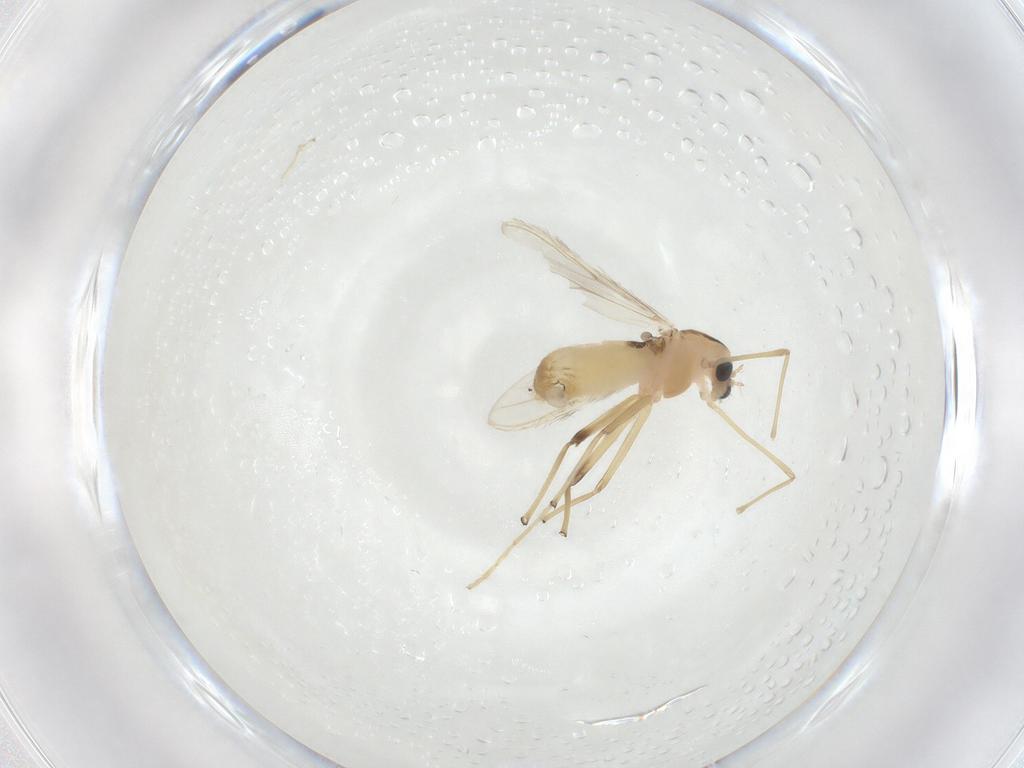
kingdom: Animalia
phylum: Arthropoda
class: Insecta
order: Diptera
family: Chironomidae
